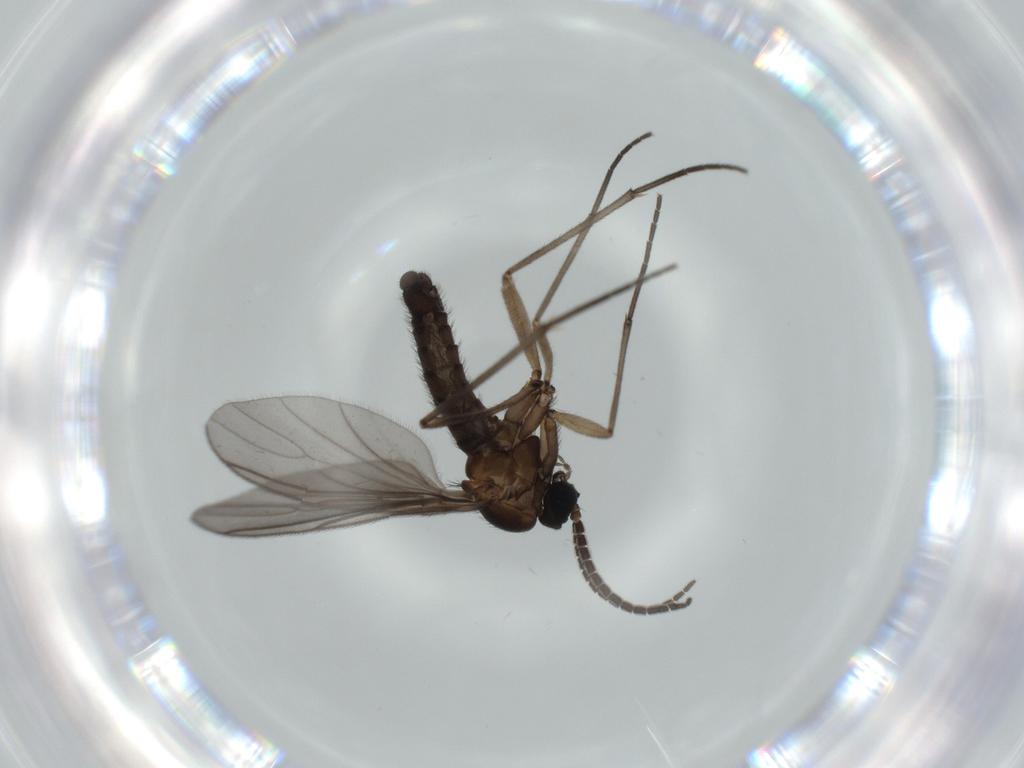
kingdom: Animalia
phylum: Arthropoda
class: Insecta
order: Diptera
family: Sciaridae
